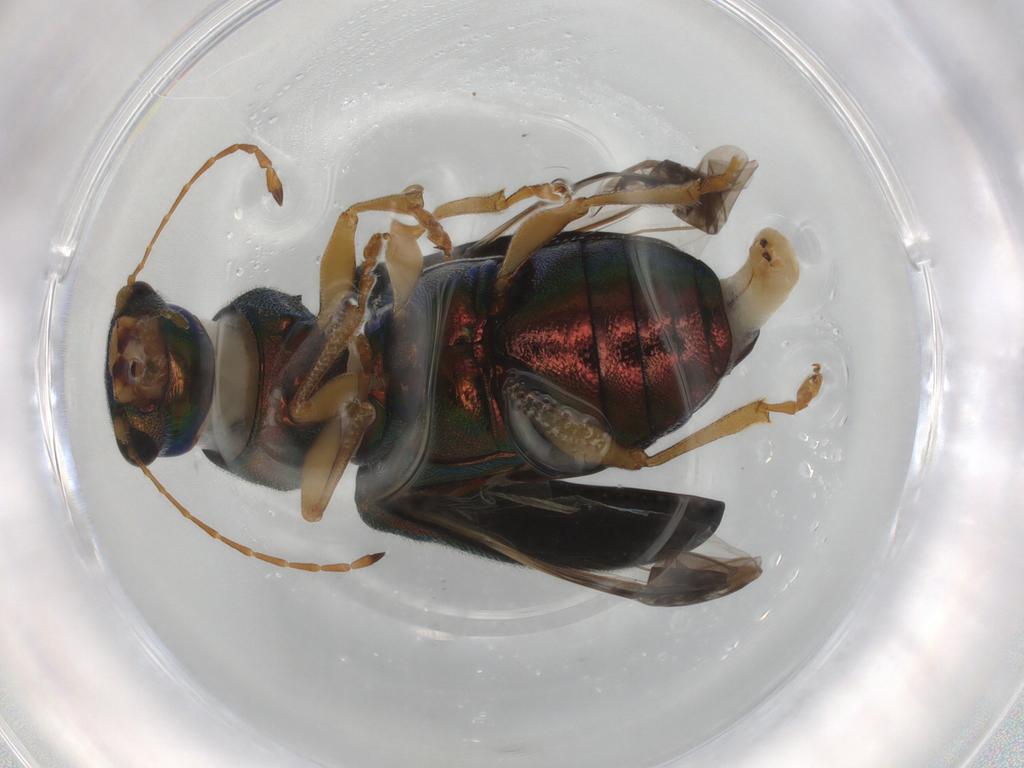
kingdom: Animalia
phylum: Arthropoda
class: Insecta
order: Coleoptera
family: Chrysomelidae
